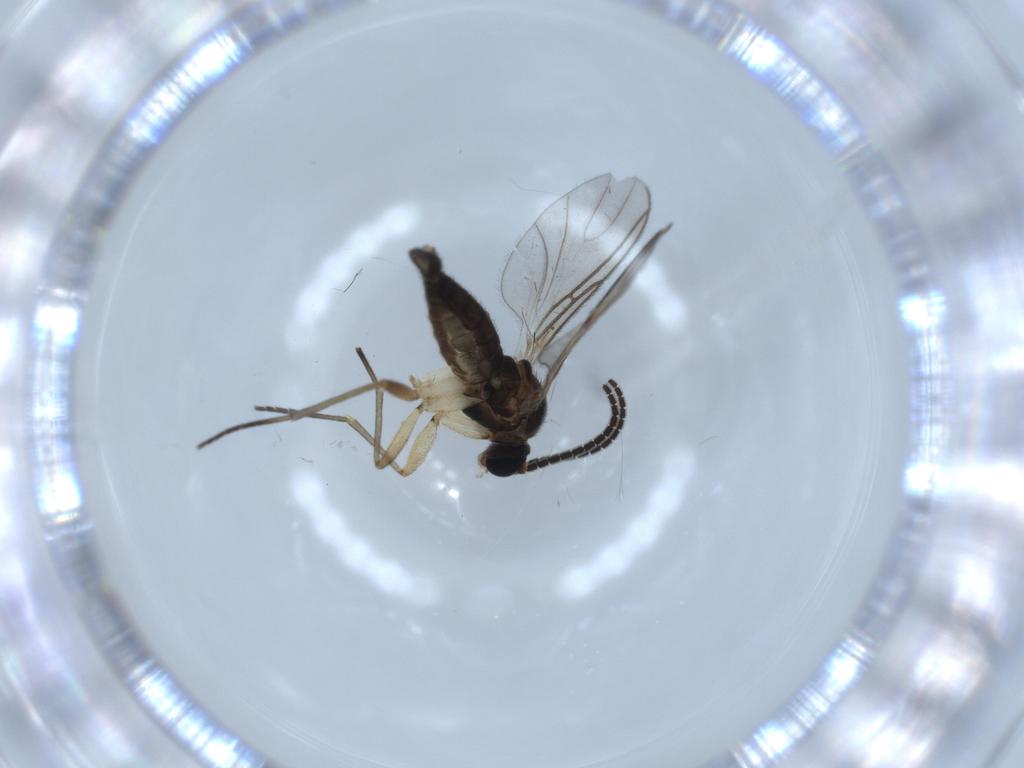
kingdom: Animalia
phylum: Arthropoda
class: Insecta
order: Diptera
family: Sciaridae
